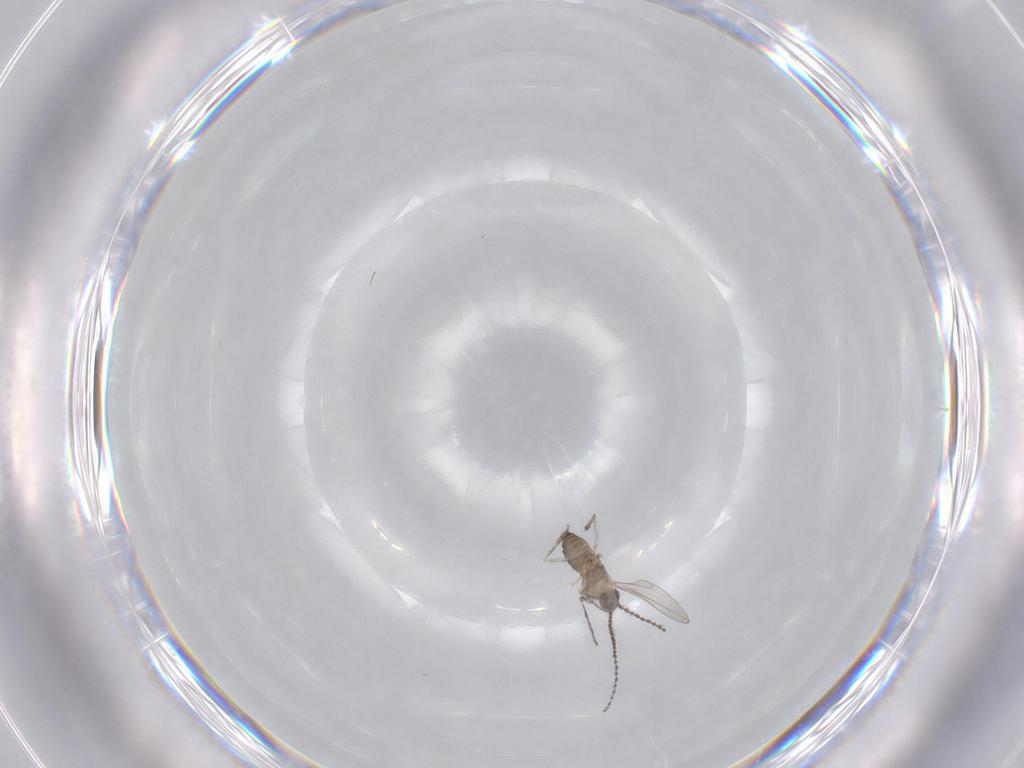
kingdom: Animalia
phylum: Arthropoda
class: Insecta
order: Diptera
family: Cecidomyiidae
